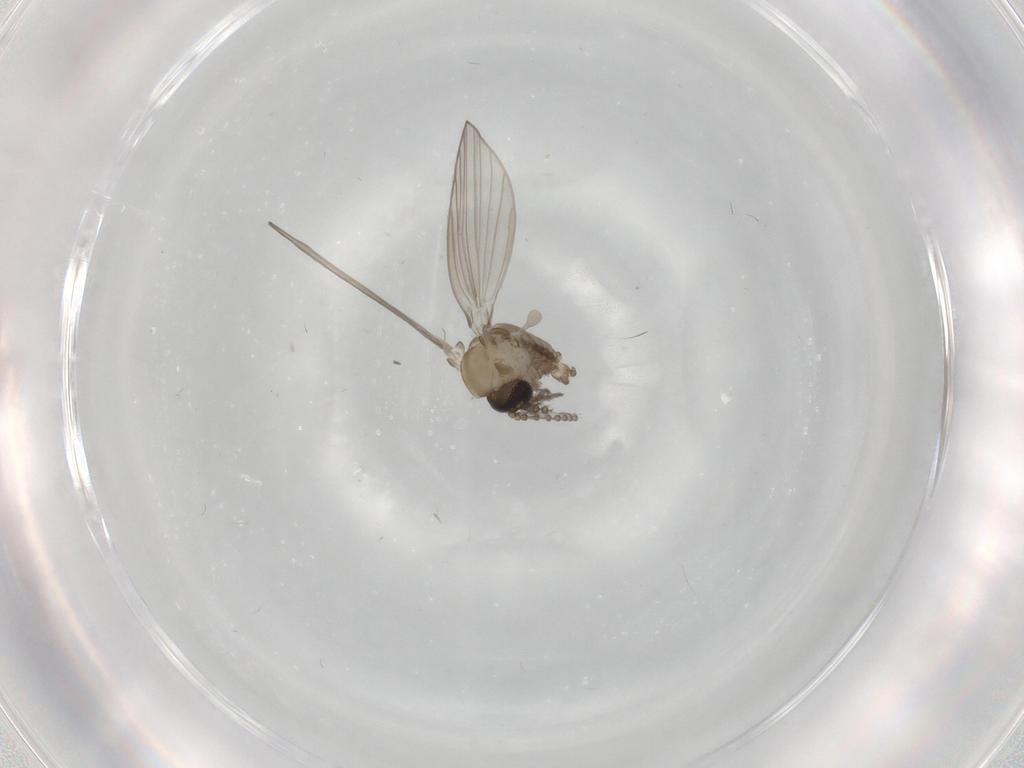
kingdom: Animalia
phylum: Arthropoda
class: Insecta
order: Diptera
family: Psychodidae
